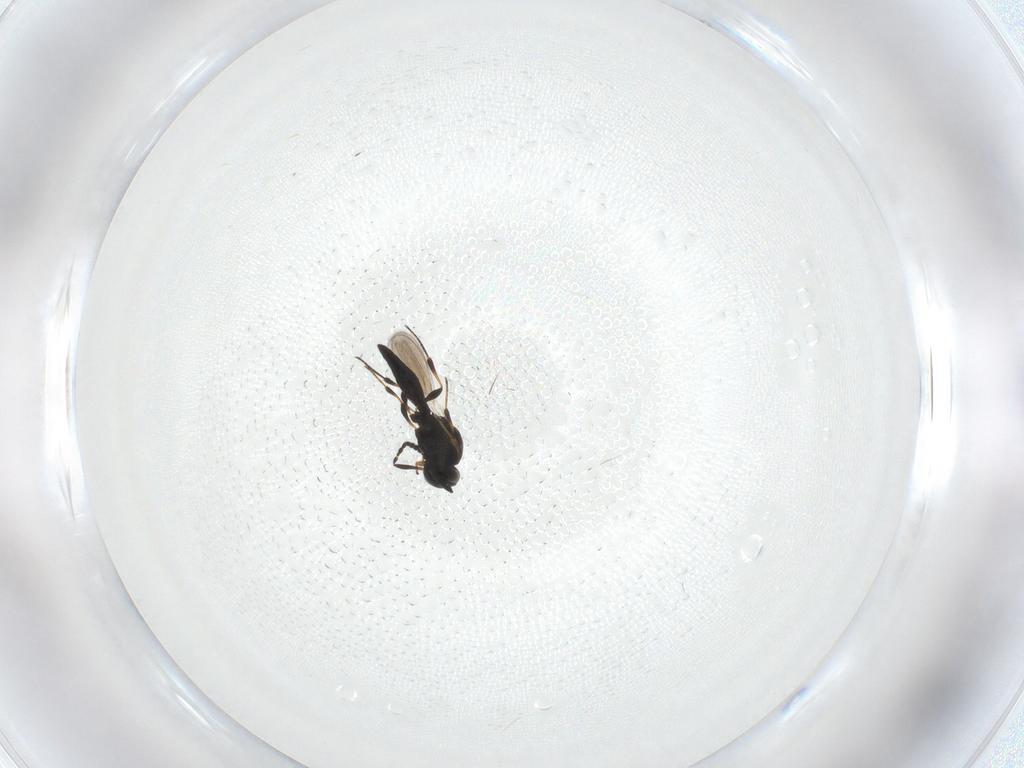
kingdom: Animalia
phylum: Arthropoda
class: Insecta
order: Hymenoptera
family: Platygastridae
